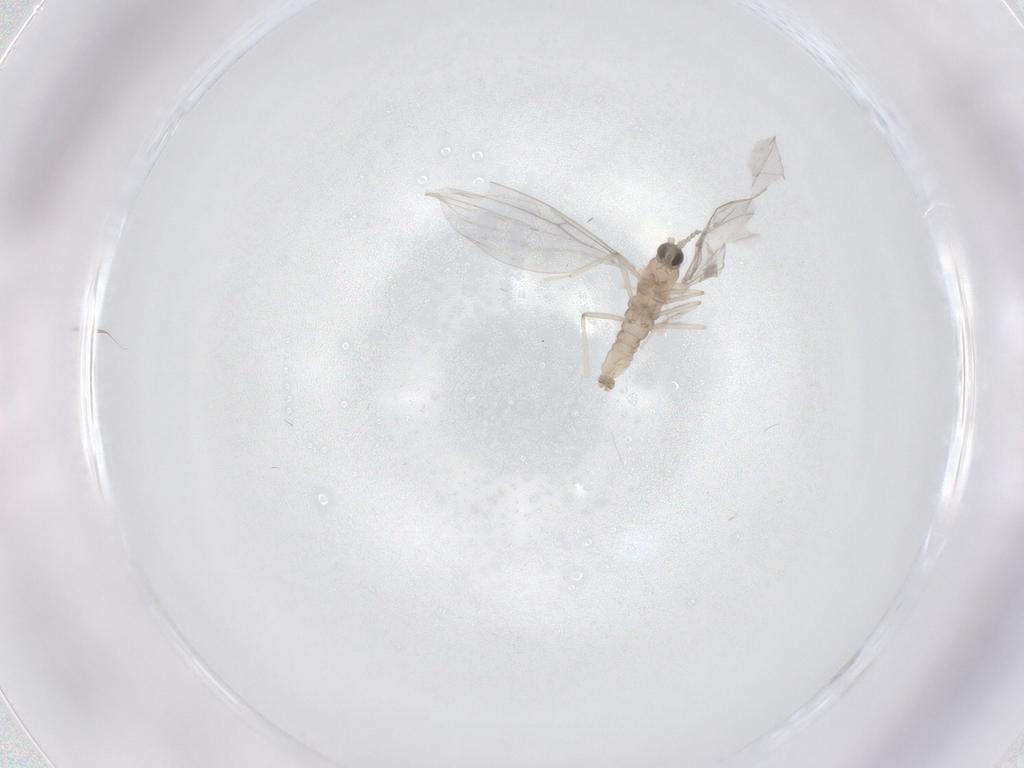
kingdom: Animalia
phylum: Arthropoda
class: Insecta
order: Diptera
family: Cecidomyiidae
